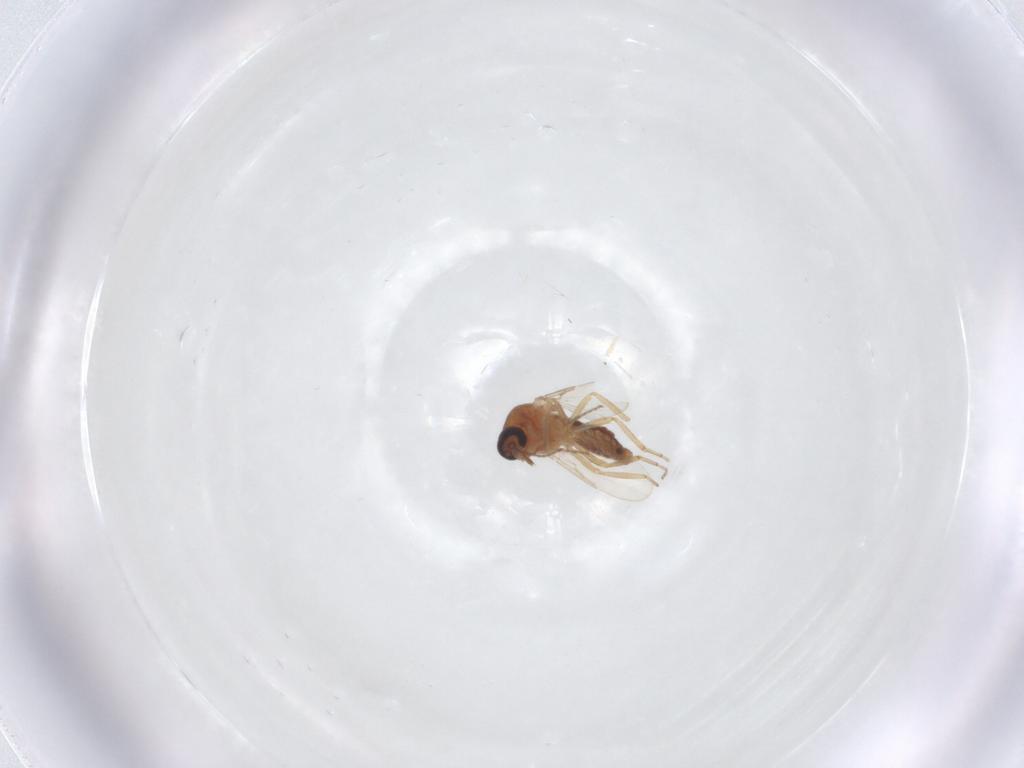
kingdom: Animalia
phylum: Arthropoda
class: Insecta
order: Diptera
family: Ceratopogonidae
